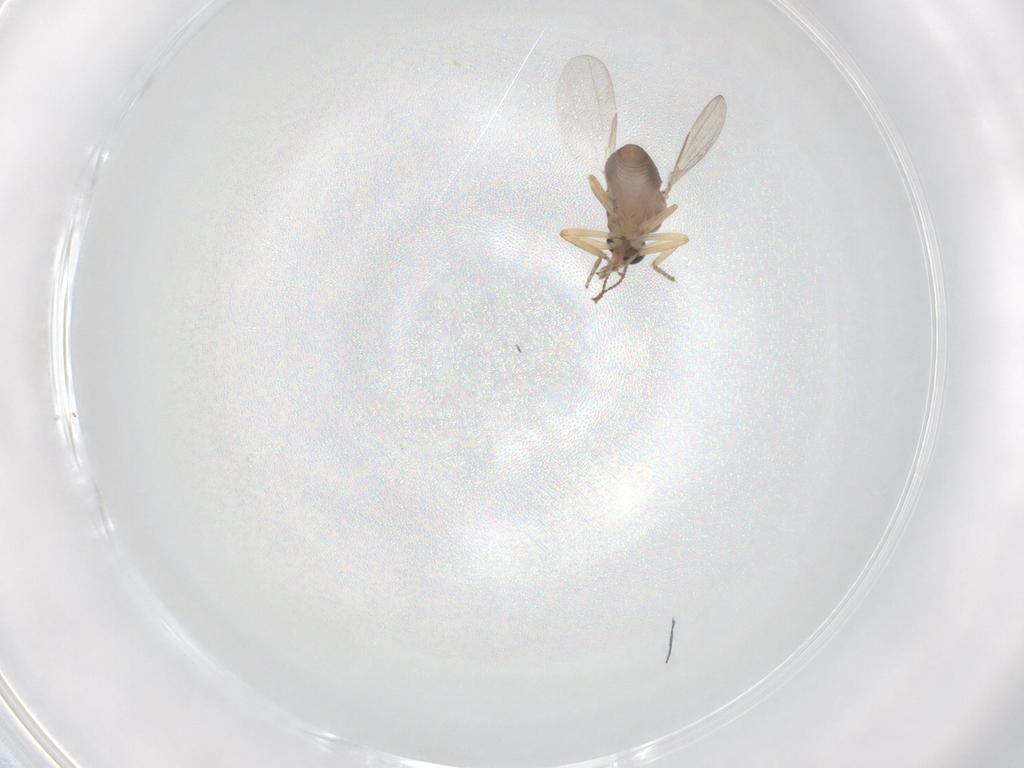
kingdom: Animalia
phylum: Arthropoda
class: Insecta
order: Diptera
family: Ceratopogonidae
